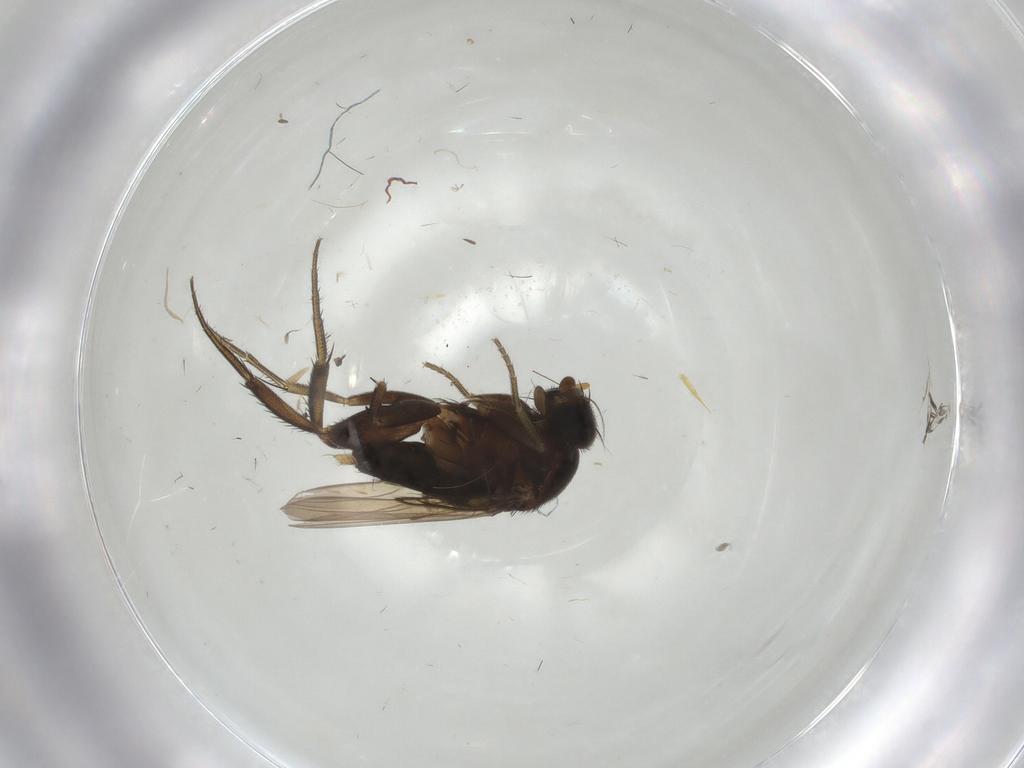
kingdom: Animalia
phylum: Arthropoda
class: Insecta
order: Diptera
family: Phoridae
